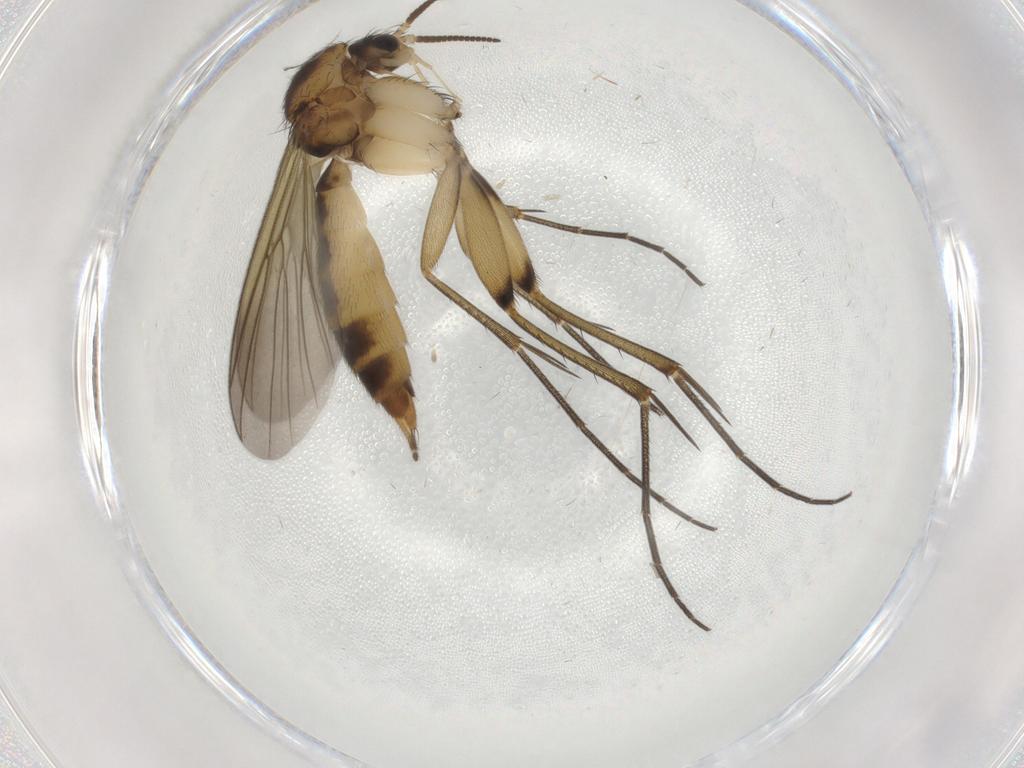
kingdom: Animalia
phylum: Arthropoda
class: Insecta
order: Diptera
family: Mycetophilidae
